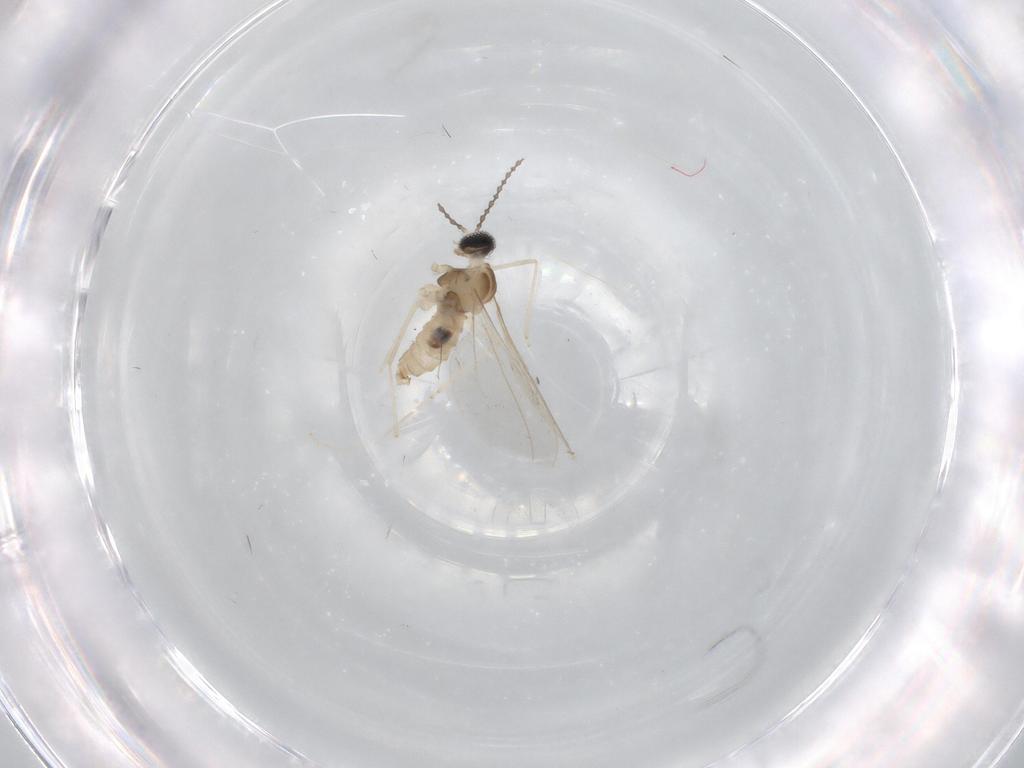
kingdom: Animalia
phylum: Arthropoda
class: Insecta
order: Diptera
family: Cecidomyiidae
